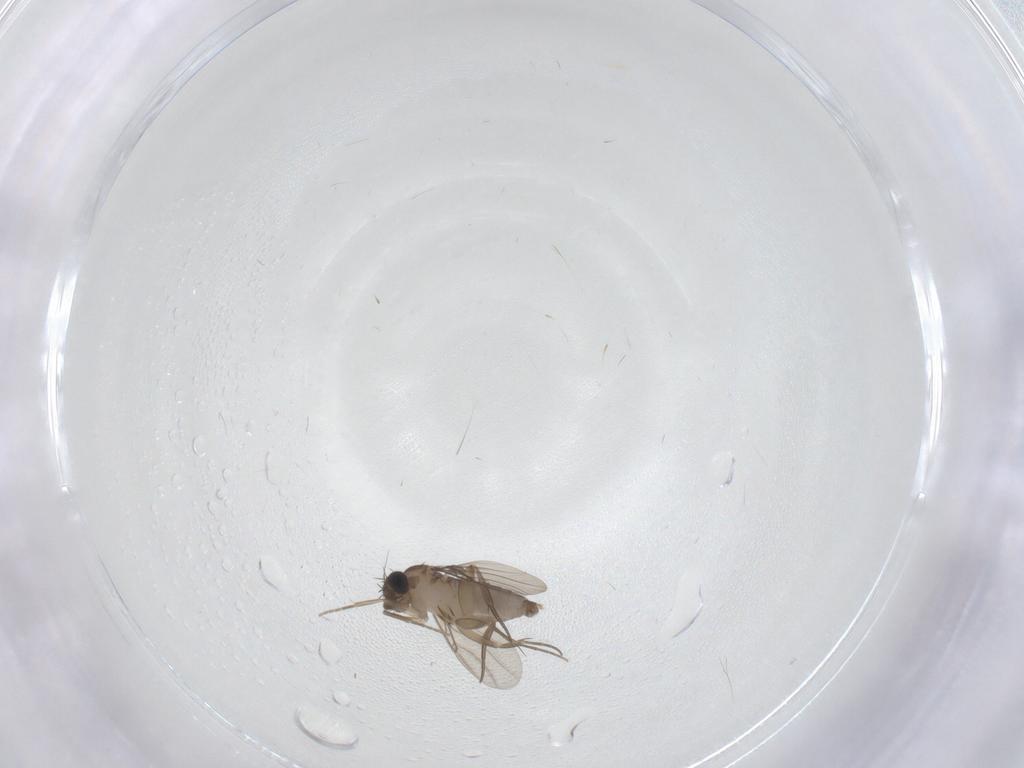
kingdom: Animalia
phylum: Arthropoda
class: Insecta
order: Diptera
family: Phoridae
